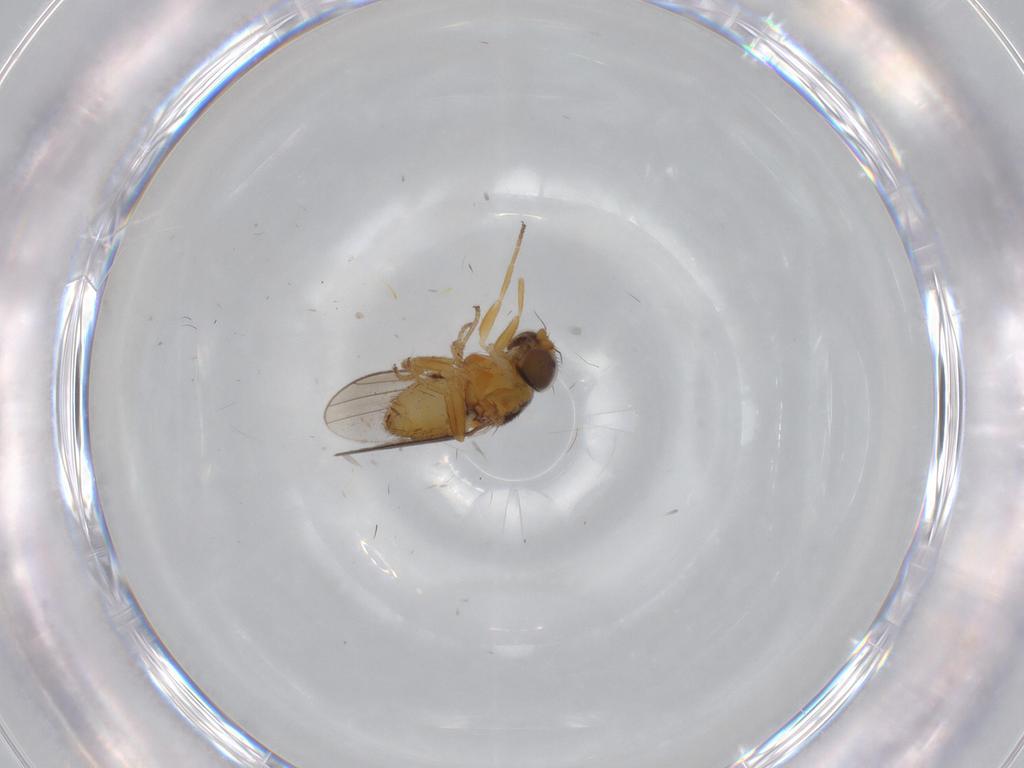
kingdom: Animalia
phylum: Arthropoda
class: Insecta
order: Diptera
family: Chloropidae
